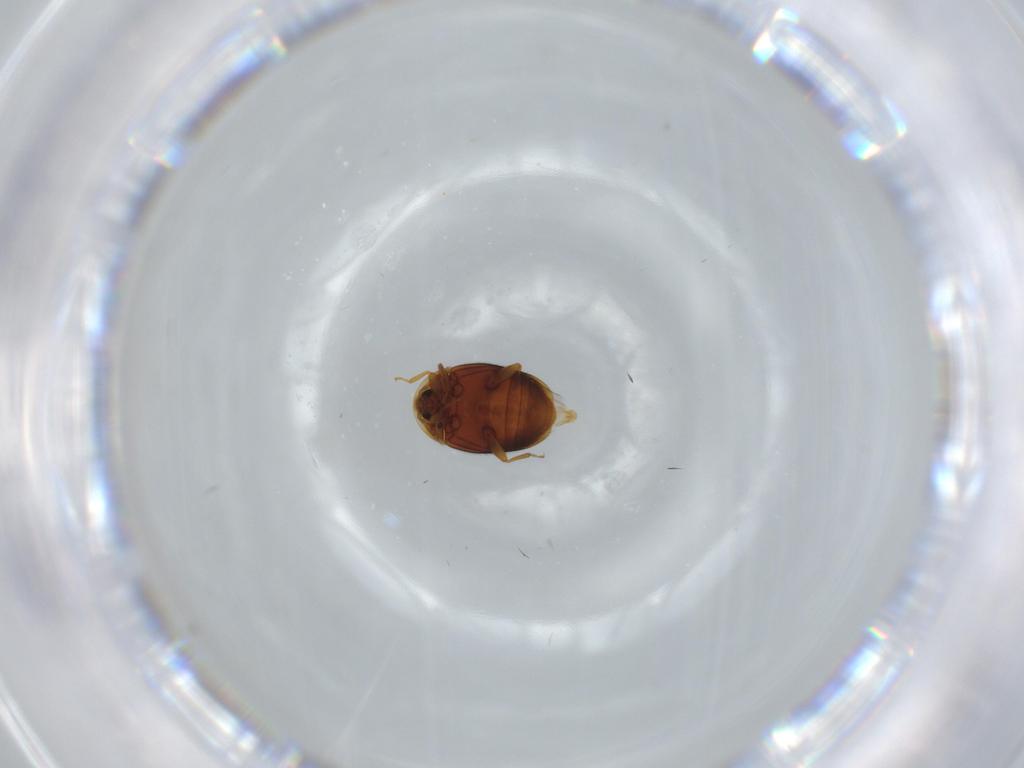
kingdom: Animalia
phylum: Arthropoda
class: Insecta
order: Coleoptera
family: Corylophidae
